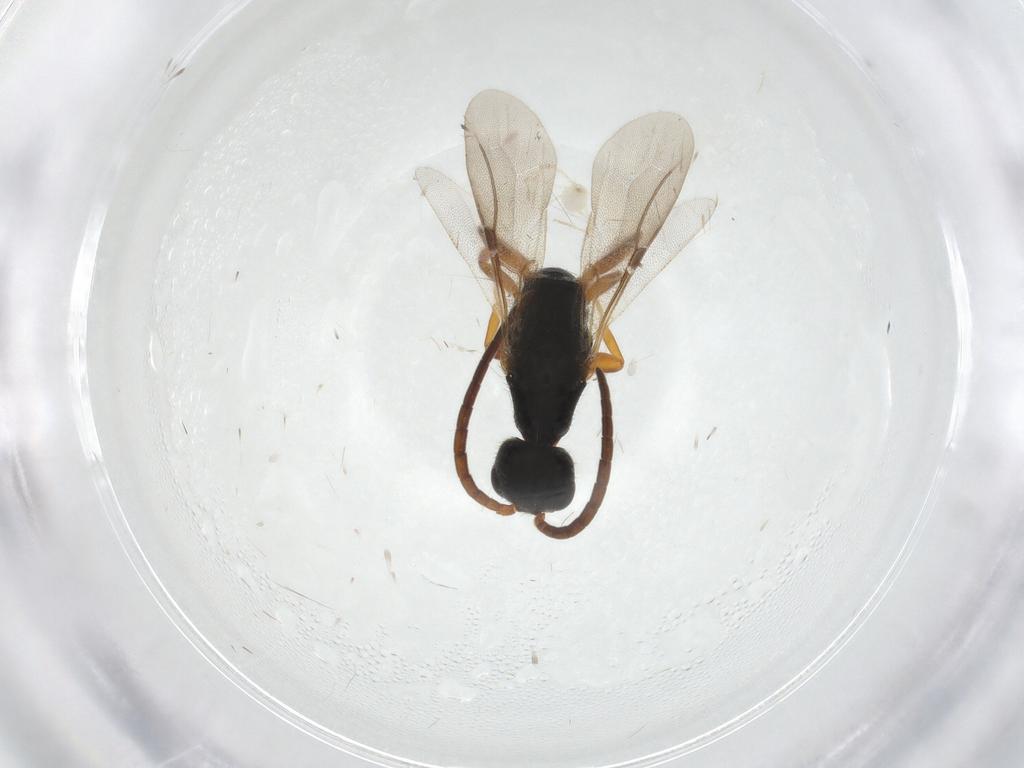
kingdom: Animalia
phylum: Arthropoda
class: Insecta
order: Hymenoptera
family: Bethylidae
